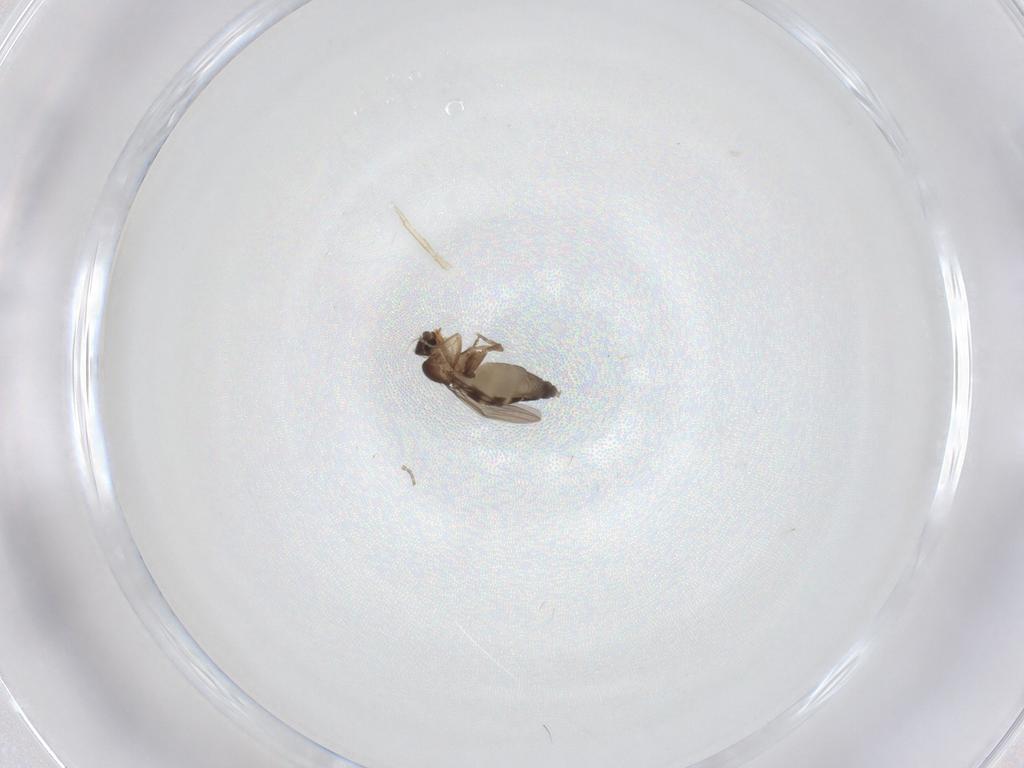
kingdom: Animalia
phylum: Arthropoda
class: Insecta
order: Diptera
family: Phoridae
